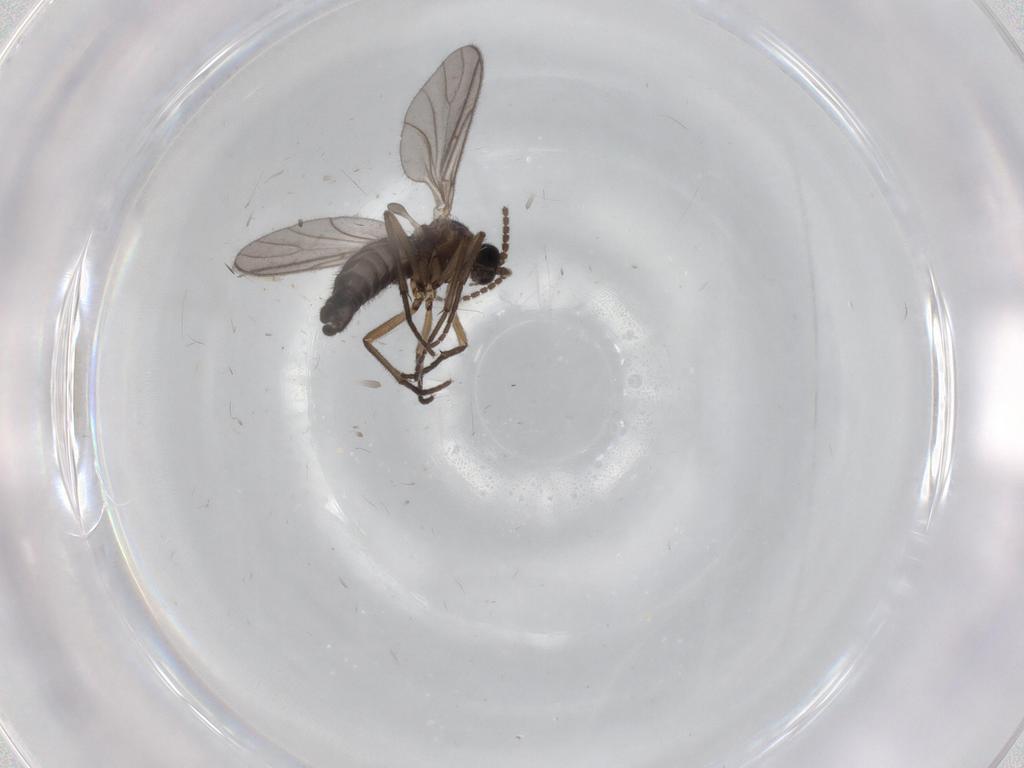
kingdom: Animalia
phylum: Arthropoda
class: Insecta
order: Diptera
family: Sciaridae
